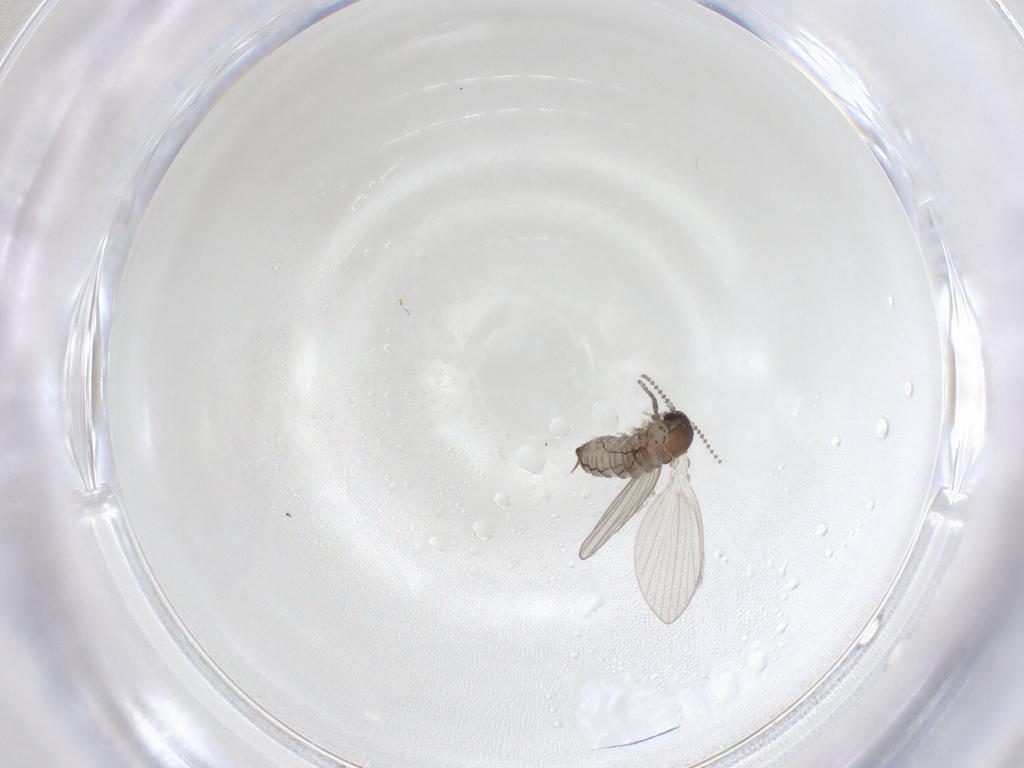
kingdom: Animalia
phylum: Arthropoda
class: Insecta
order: Diptera
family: Psychodidae
